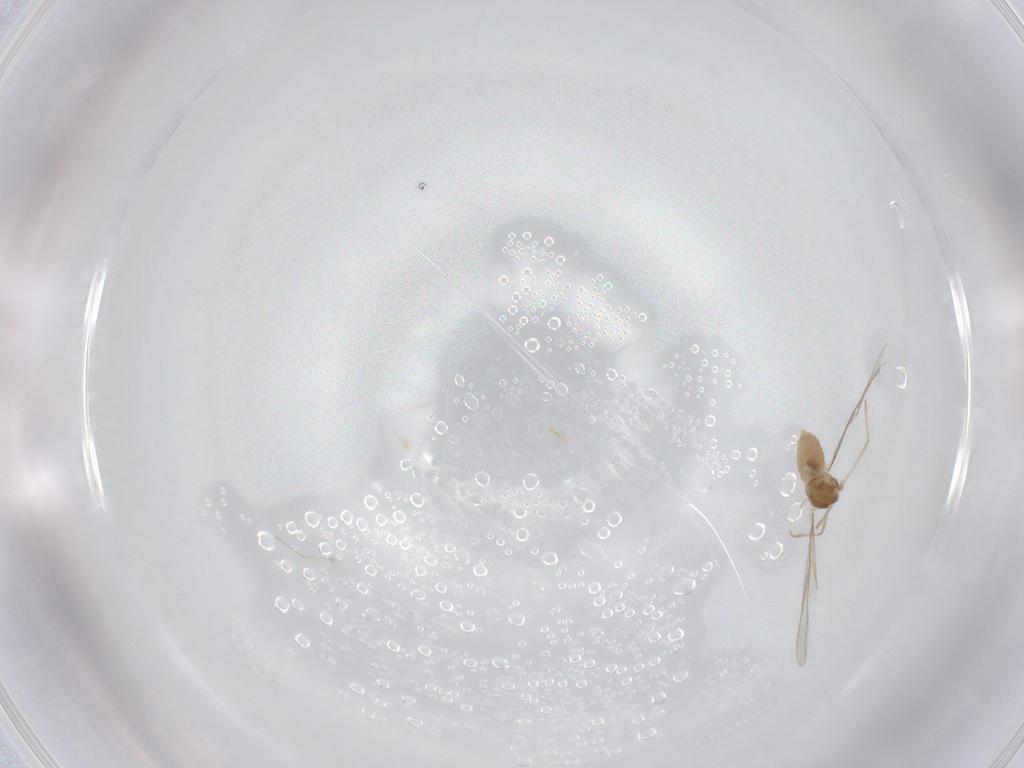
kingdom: Animalia
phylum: Arthropoda
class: Insecta
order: Diptera
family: Cecidomyiidae
